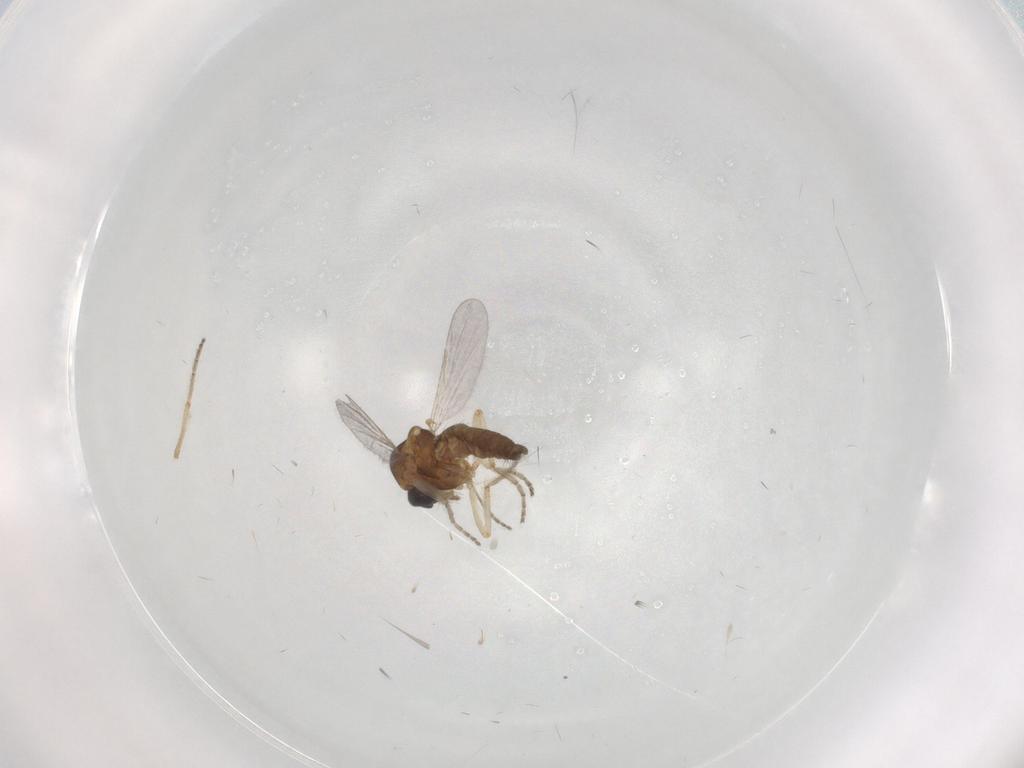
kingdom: Animalia
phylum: Arthropoda
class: Insecta
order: Diptera
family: Ceratopogonidae
